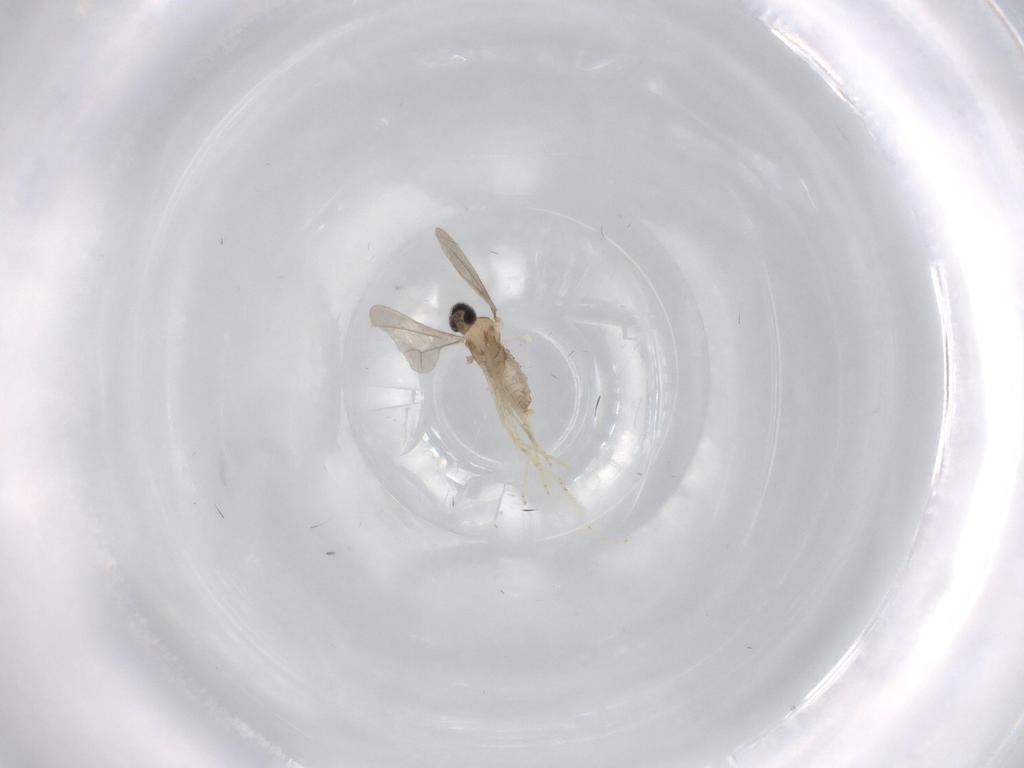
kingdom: Animalia
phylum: Arthropoda
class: Insecta
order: Diptera
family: Cecidomyiidae
